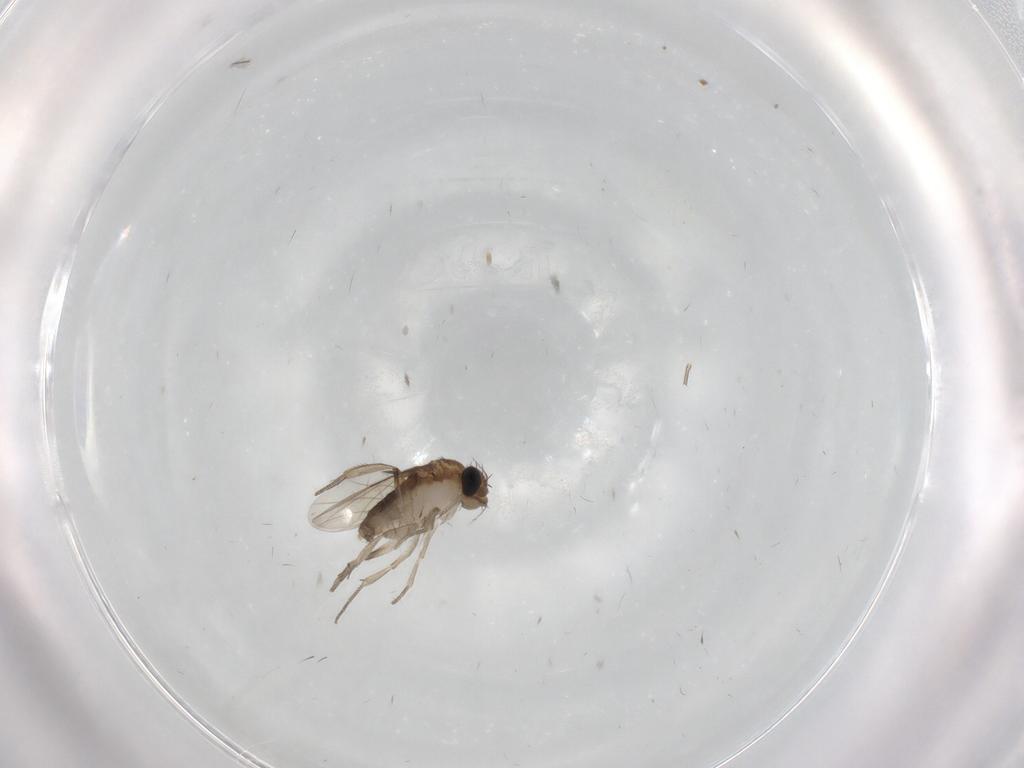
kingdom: Animalia
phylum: Arthropoda
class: Insecta
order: Diptera
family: Phoridae
